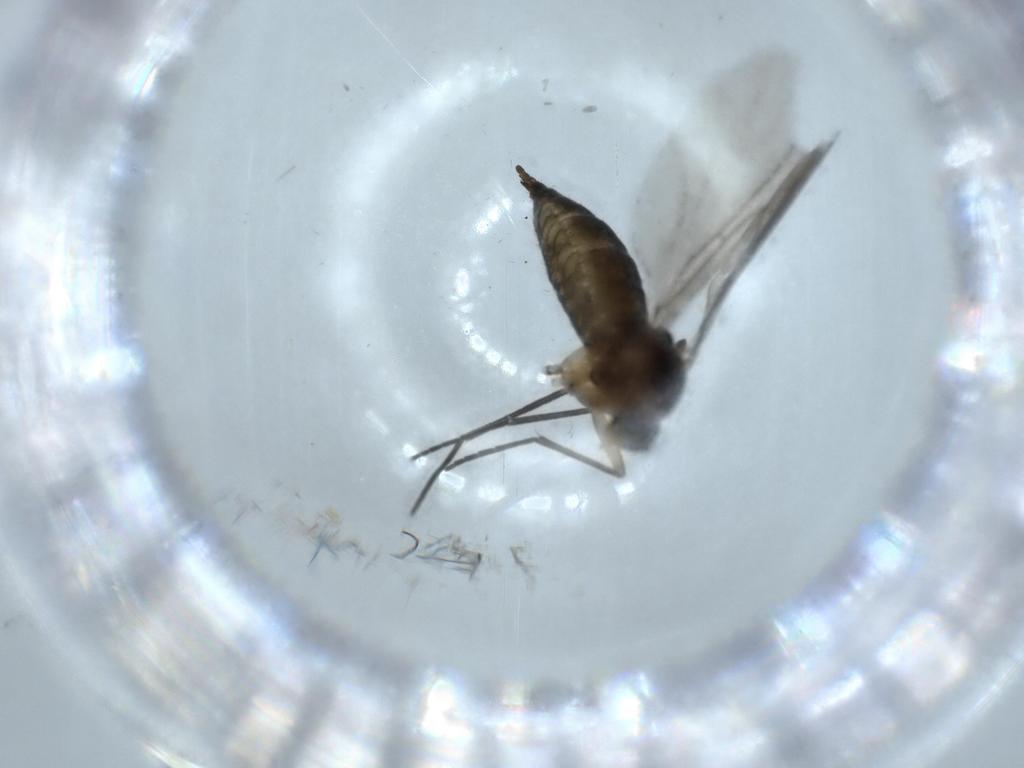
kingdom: Animalia
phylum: Arthropoda
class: Insecta
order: Diptera
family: Sciaridae
